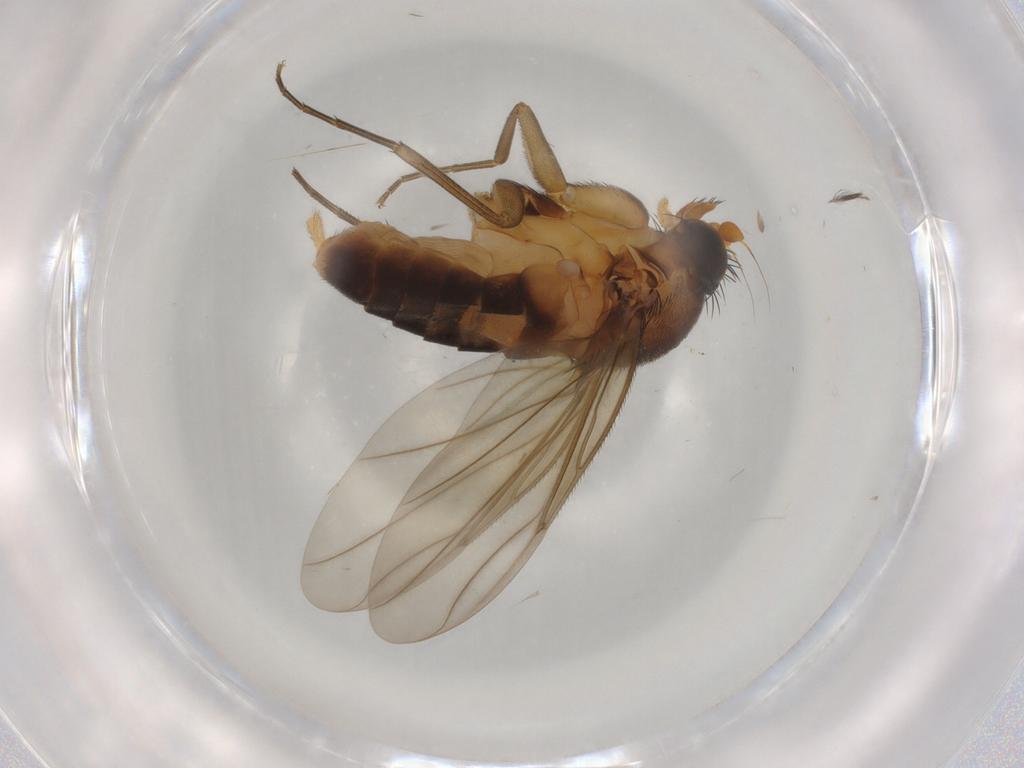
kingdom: Animalia
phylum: Arthropoda
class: Insecta
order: Diptera
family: Phoridae
